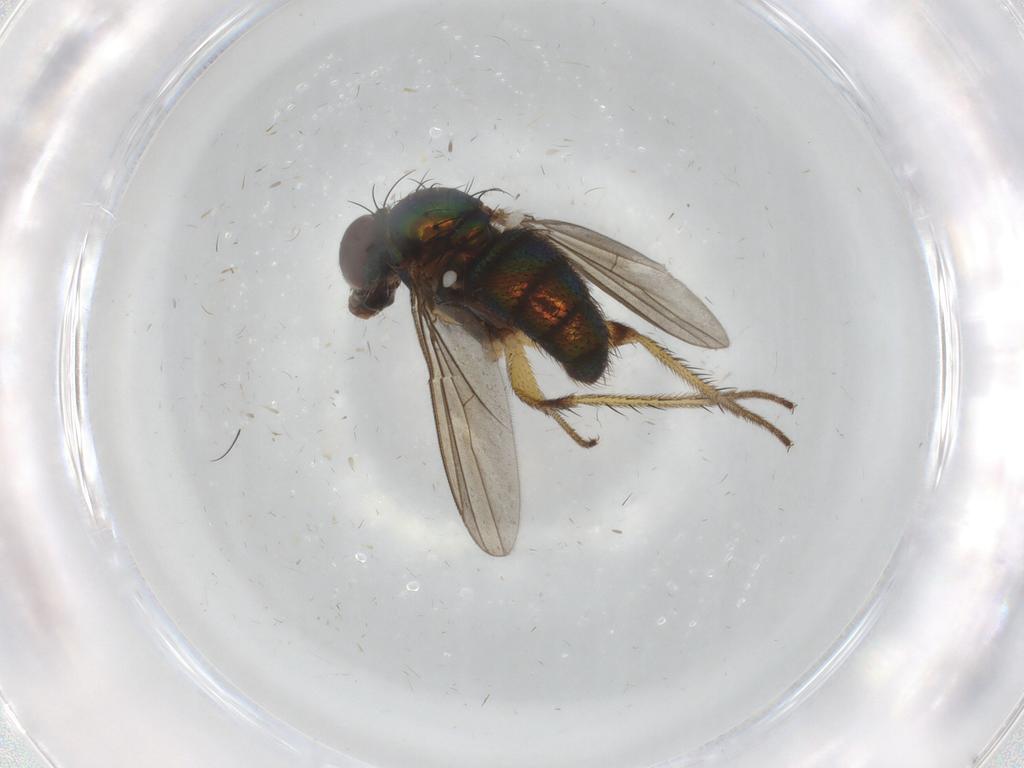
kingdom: Animalia
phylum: Arthropoda
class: Insecta
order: Diptera
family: Dolichopodidae
